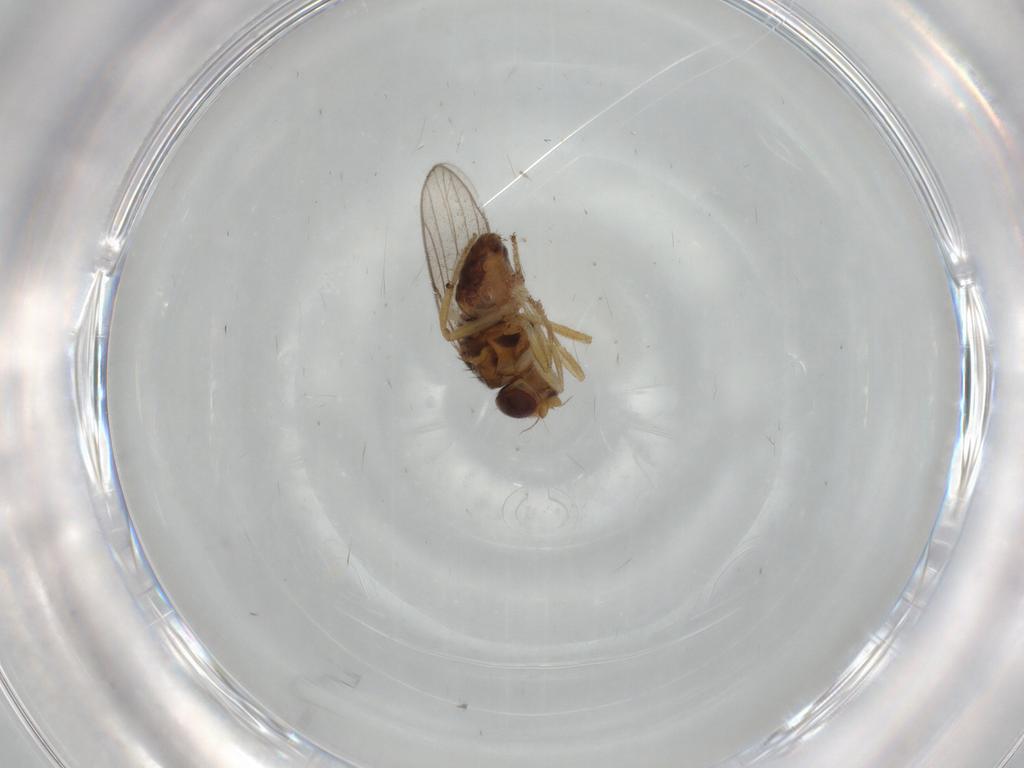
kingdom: Animalia
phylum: Arthropoda
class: Insecta
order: Diptera
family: Chloropidae
